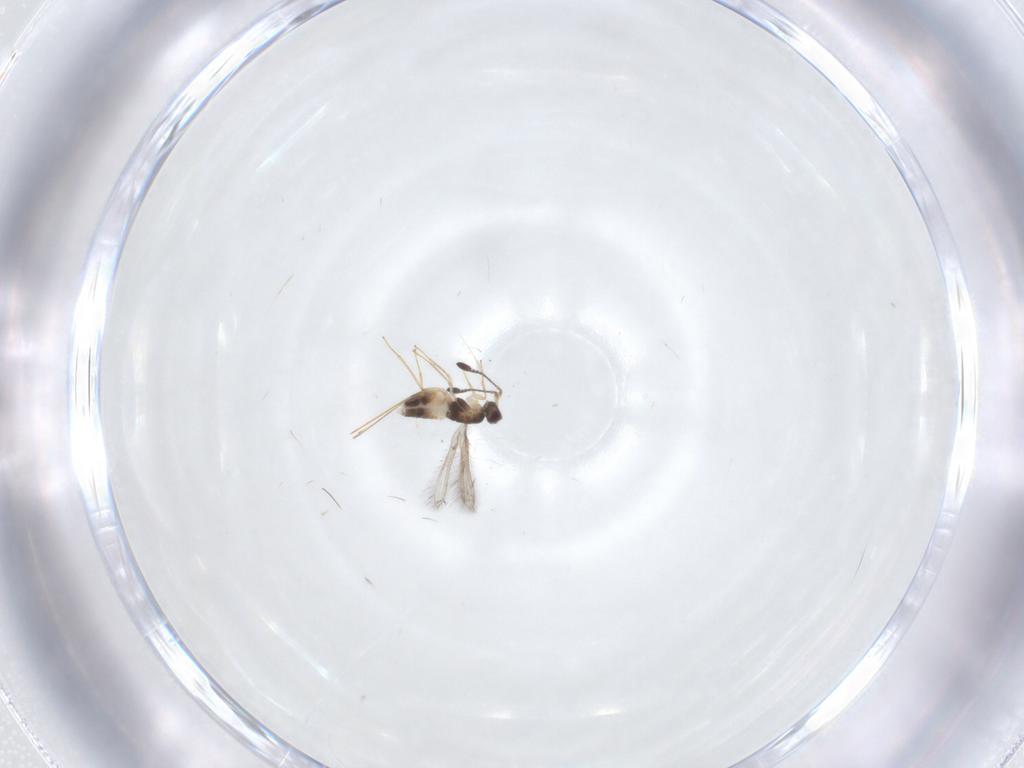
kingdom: Animalia
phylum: Arthropoda
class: Insecta
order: Hymenoptera
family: Mymaridae
